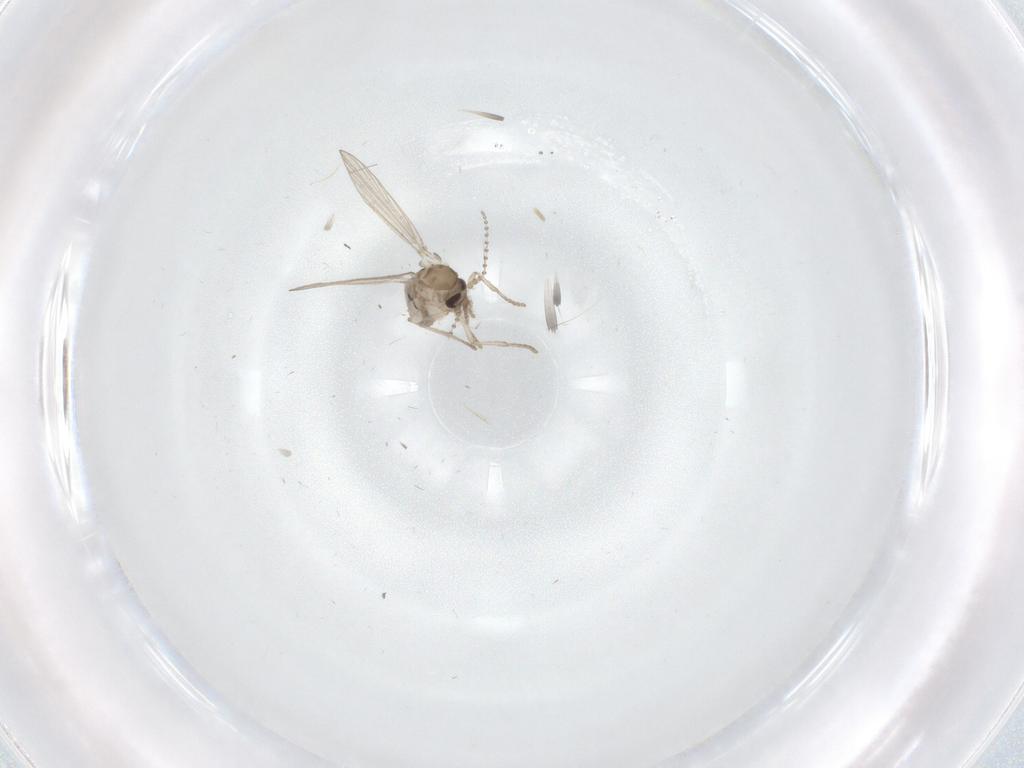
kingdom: Animalia
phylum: Arthropoda
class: Insecta
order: Diptera
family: Psychodidae
